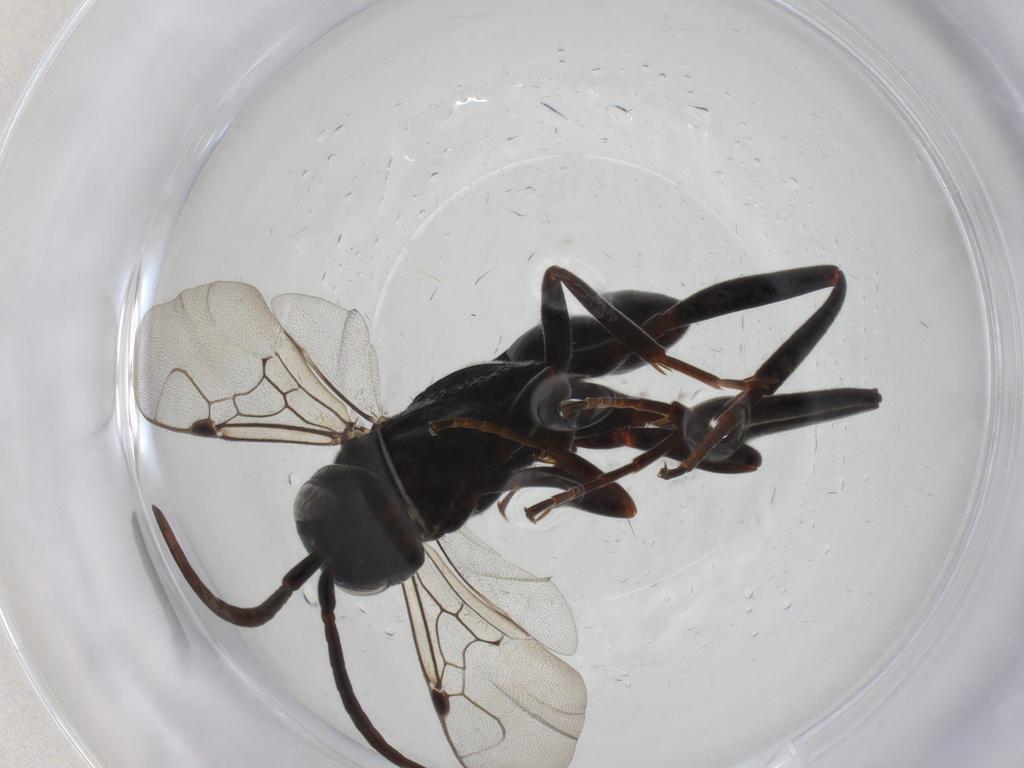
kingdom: Animalia
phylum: Arthropoda
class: Insecta
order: Hymenoptera
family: Evaniidae
